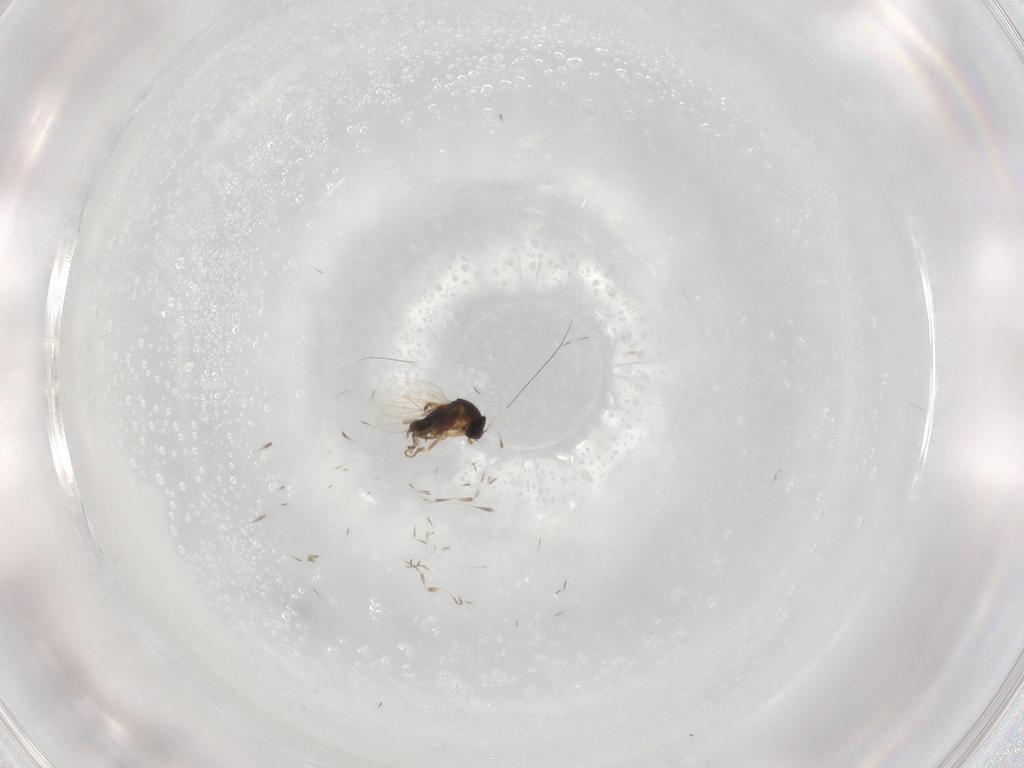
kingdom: Animalia
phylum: Arthropoda
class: Insecta
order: Diptera
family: Phoridae
